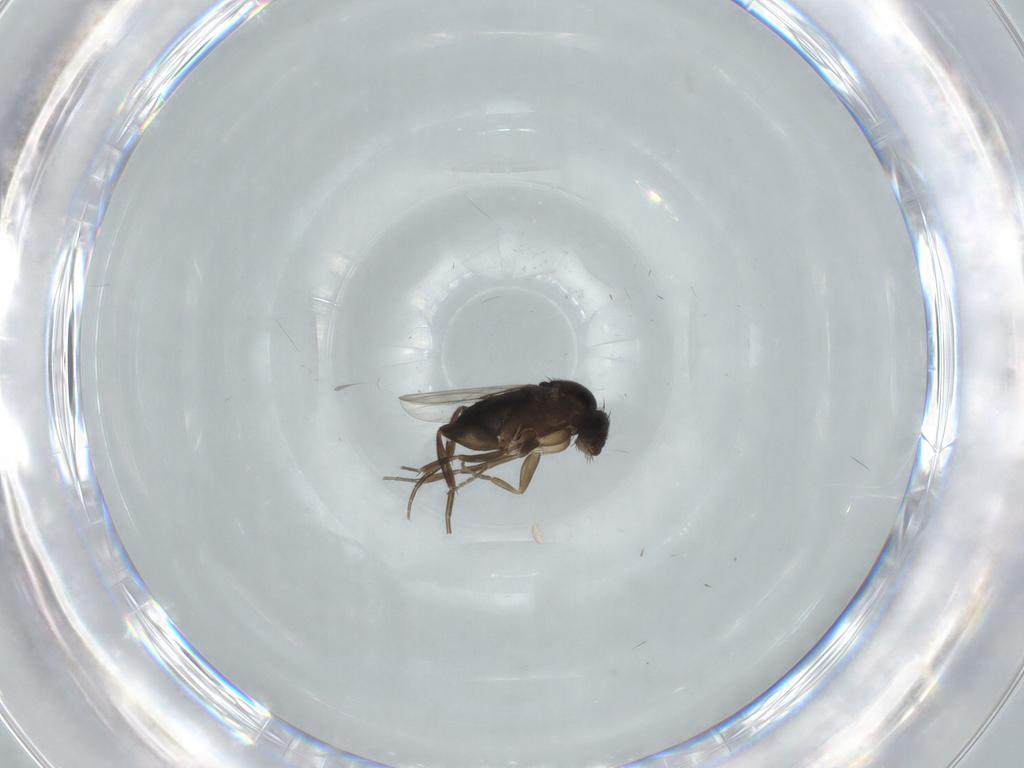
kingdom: Animalia
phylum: Arthropoda
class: Insecta
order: Diptera
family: Phoridae
